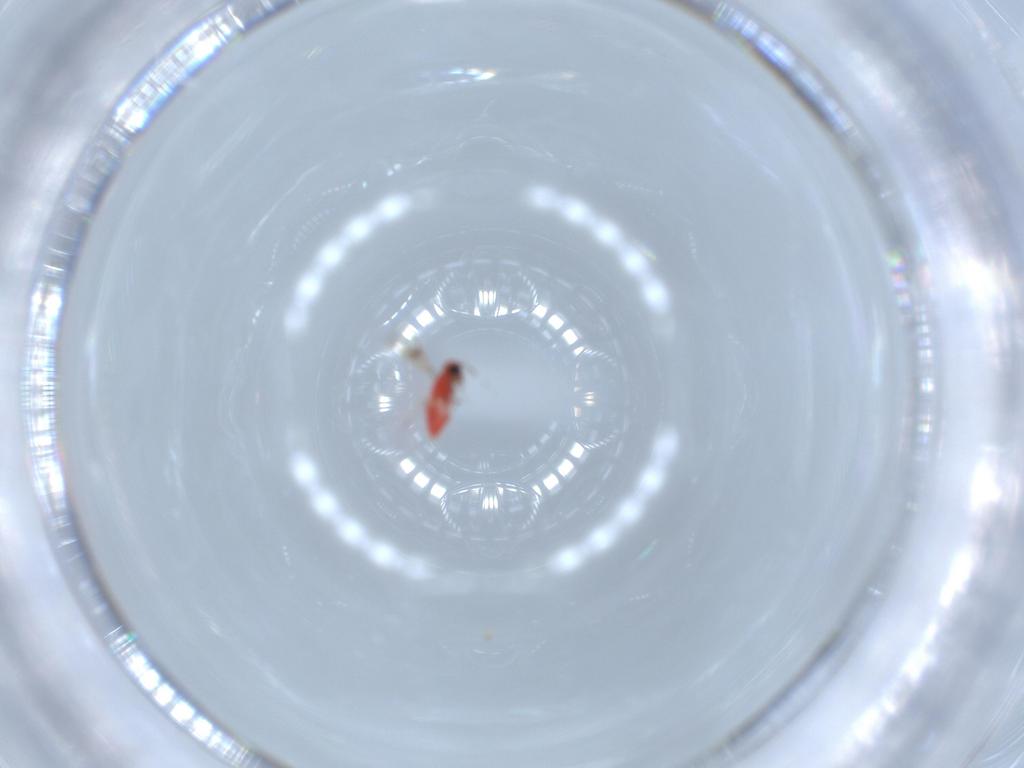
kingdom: Animalia
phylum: Arthropoda
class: Insecta
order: Hymenoptera
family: Trichogrammatidae
